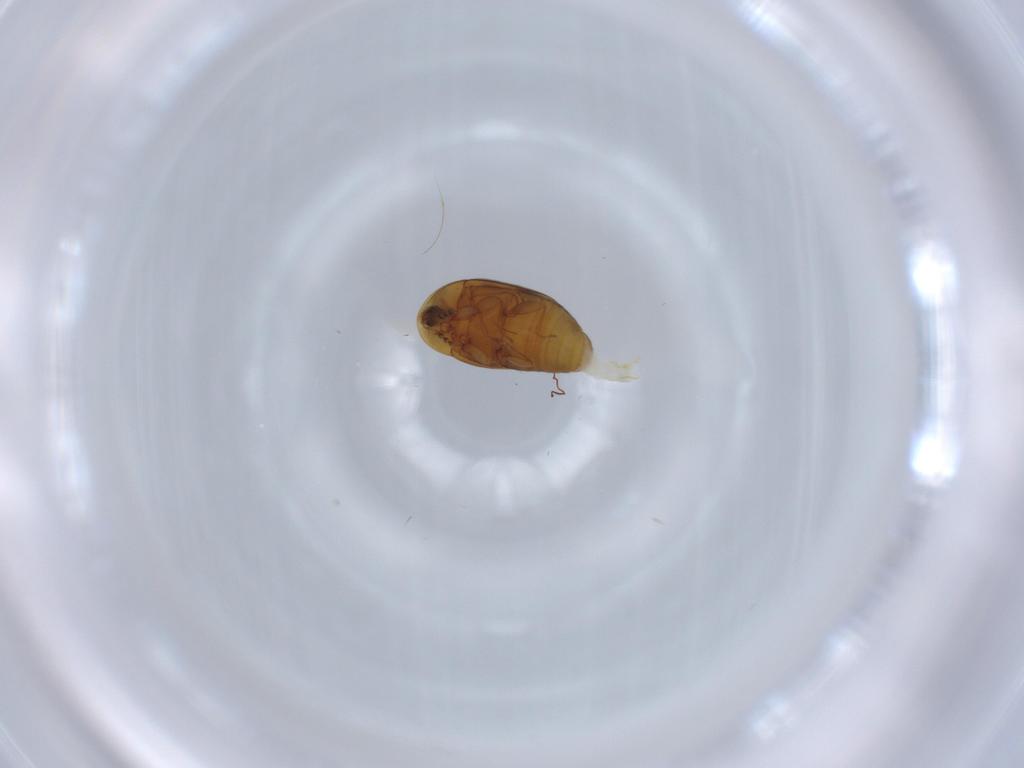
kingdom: Animalia
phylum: Arthropoda
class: Insecta
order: Coleoptera
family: Corylophidae
